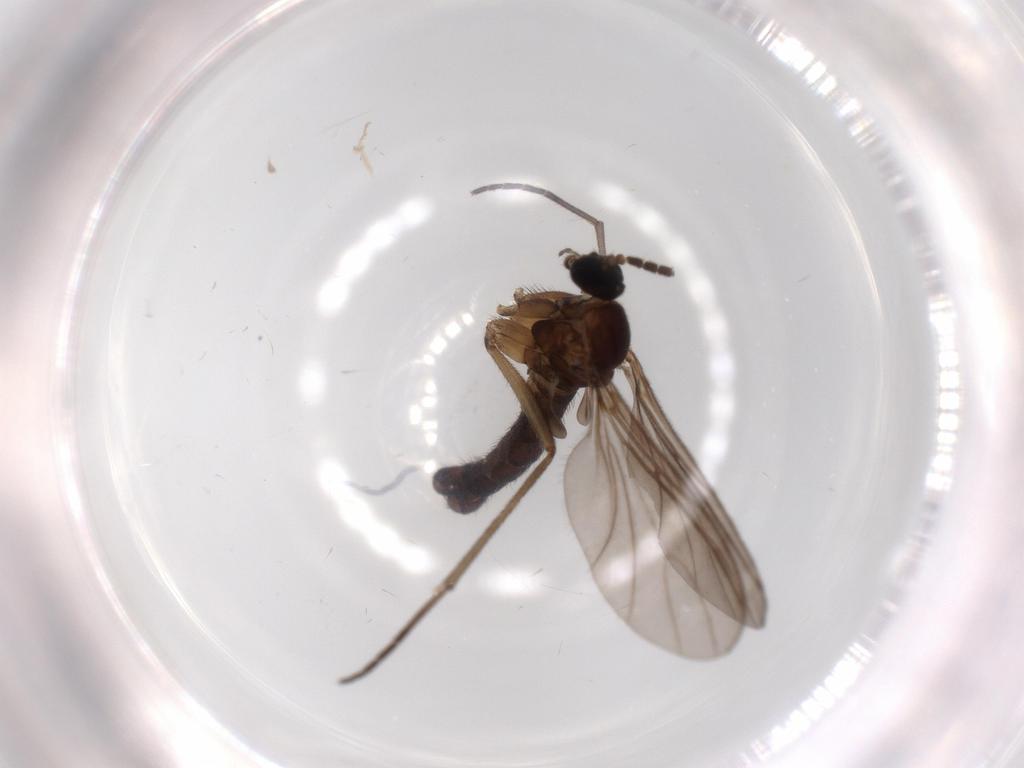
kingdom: Animalia
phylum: Arthropoda
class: Insecta
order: Diptera
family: Sciaridae
